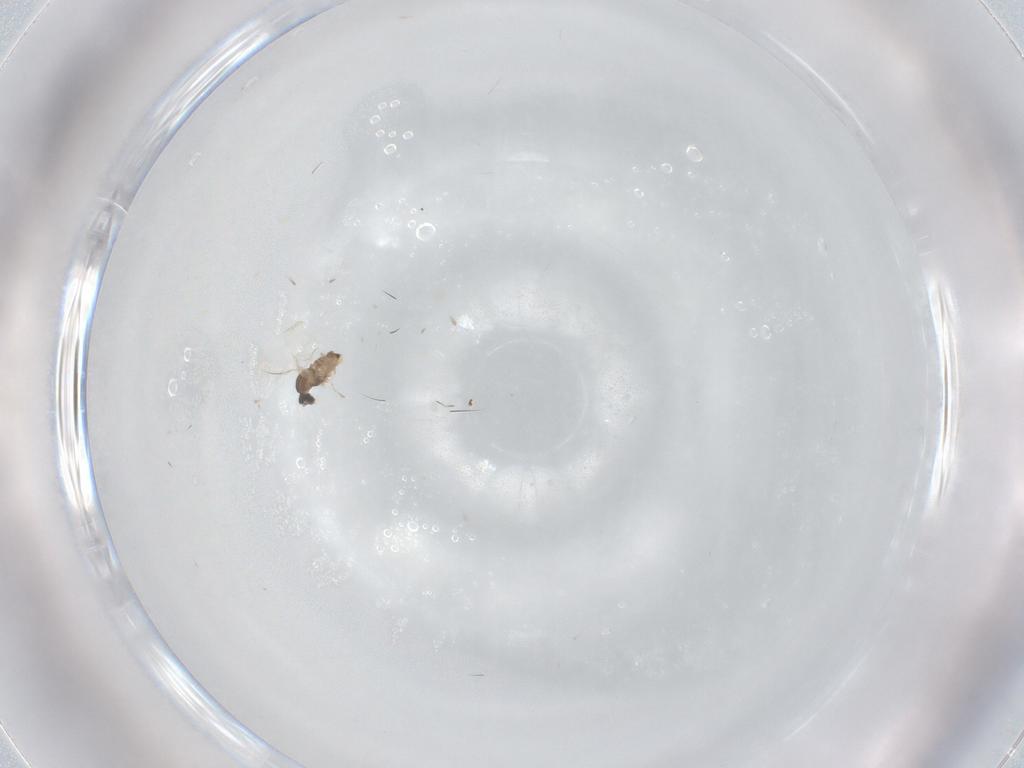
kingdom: Animalia
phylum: Arthropoda
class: Insecta
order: Diptera
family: Cecidomyiidae
